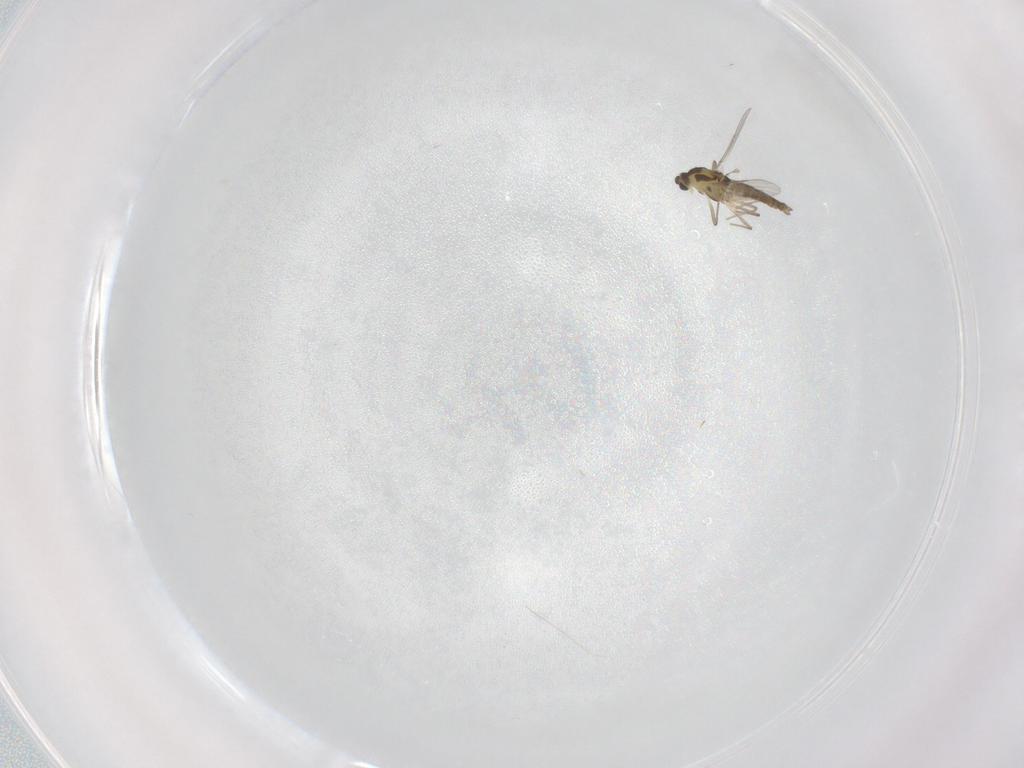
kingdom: Animalia
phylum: Arthropoda
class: Insecta
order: Diptera
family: Chironomidae
